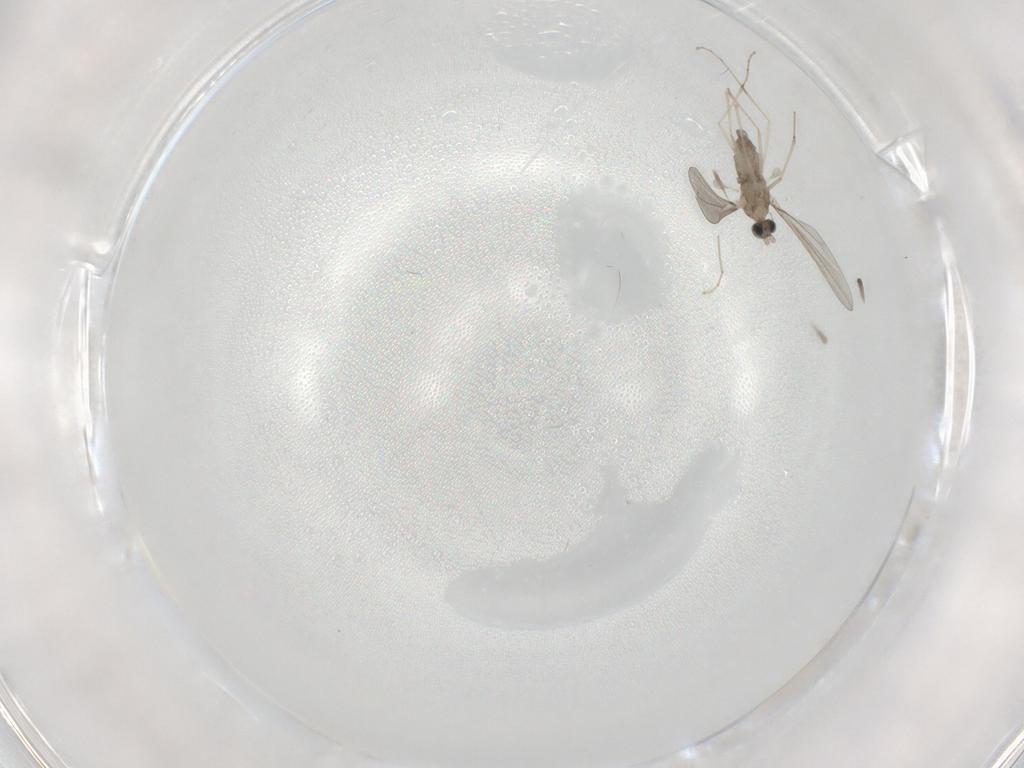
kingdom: Animalia
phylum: Arthropoda
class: Insecta
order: Diptera
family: Cecidomyiidae
